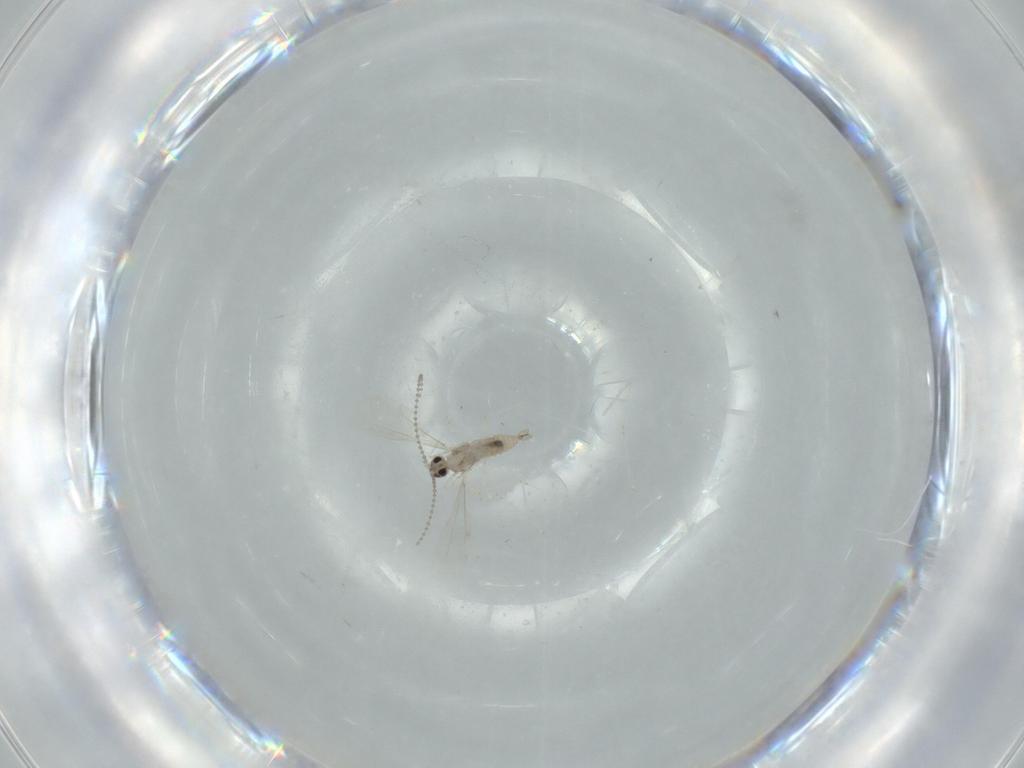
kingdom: Animalia
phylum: Arthropoda
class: Insecta
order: Diptera
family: Cecidomyiidae
